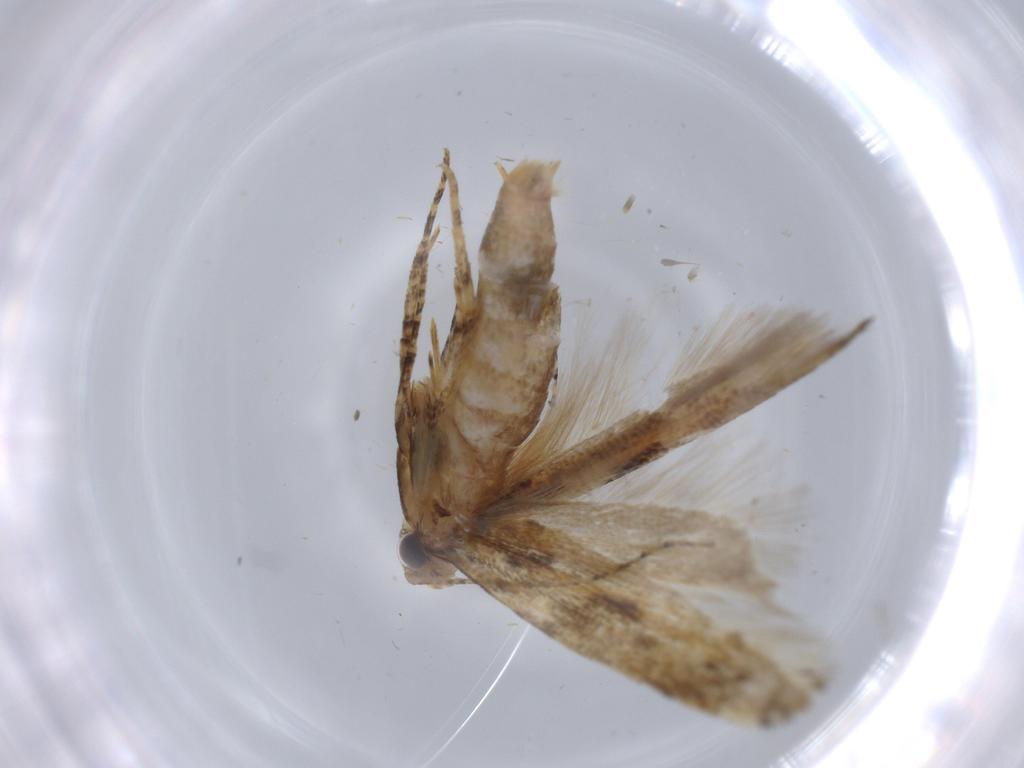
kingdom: Animalia
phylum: Arthropoda
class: Insecta
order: Lepidoptera
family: Gelechiidae
